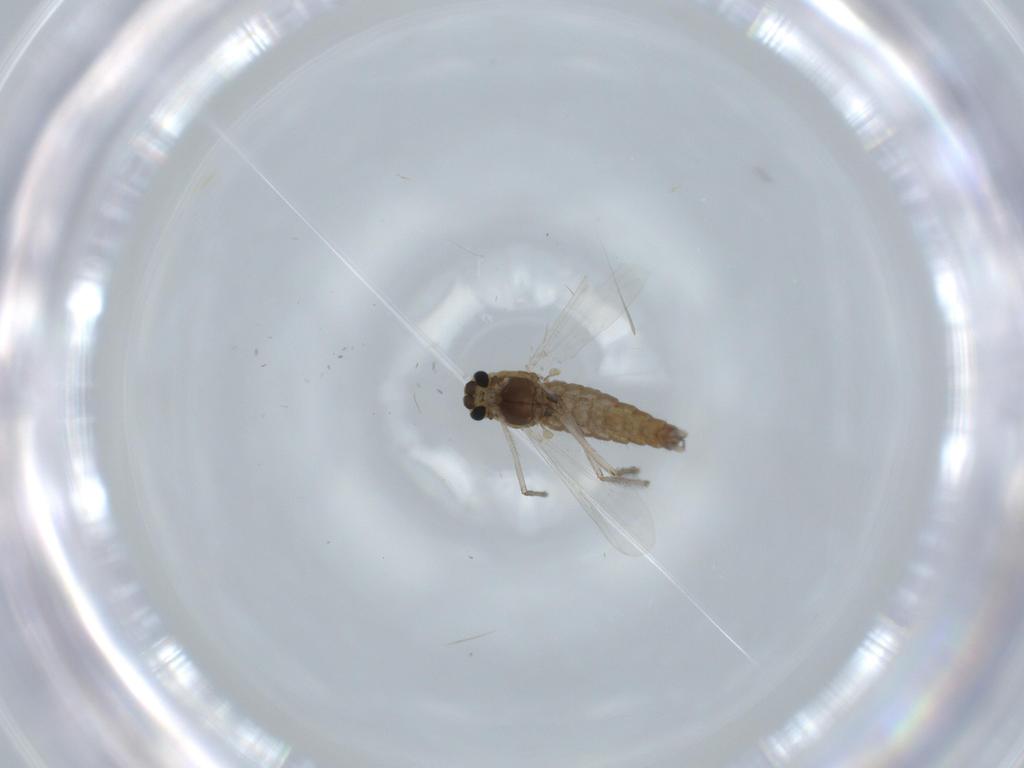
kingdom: Animalia
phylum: Arthropoda
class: Insecta
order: Diptera
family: Chironomidae
